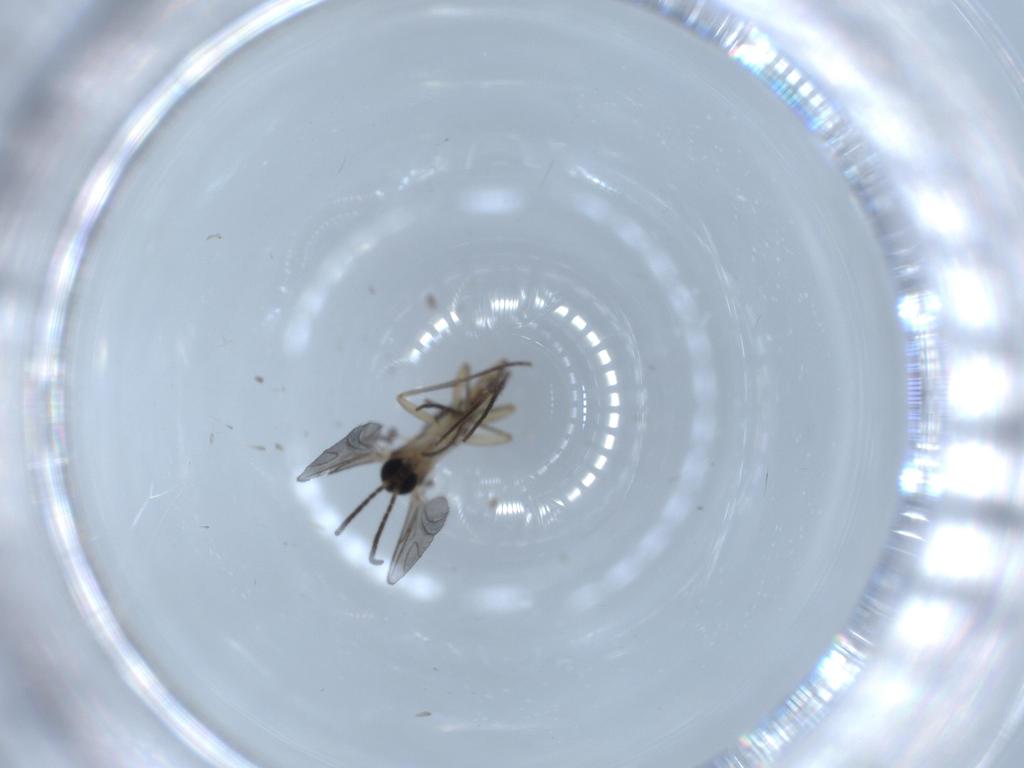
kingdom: Animalia
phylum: Arthropoda
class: Insecta
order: Diptera
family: Sciaridae
